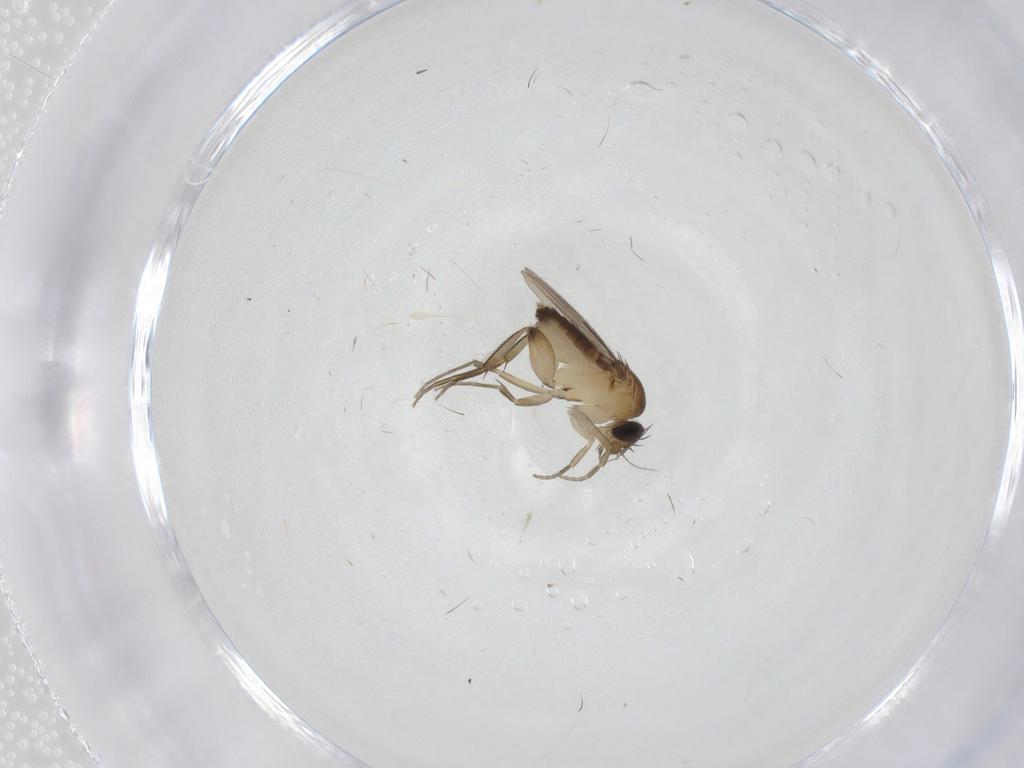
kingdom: Animalia
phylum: Arthropoda
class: Insecta
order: Diptera
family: Phoridae
